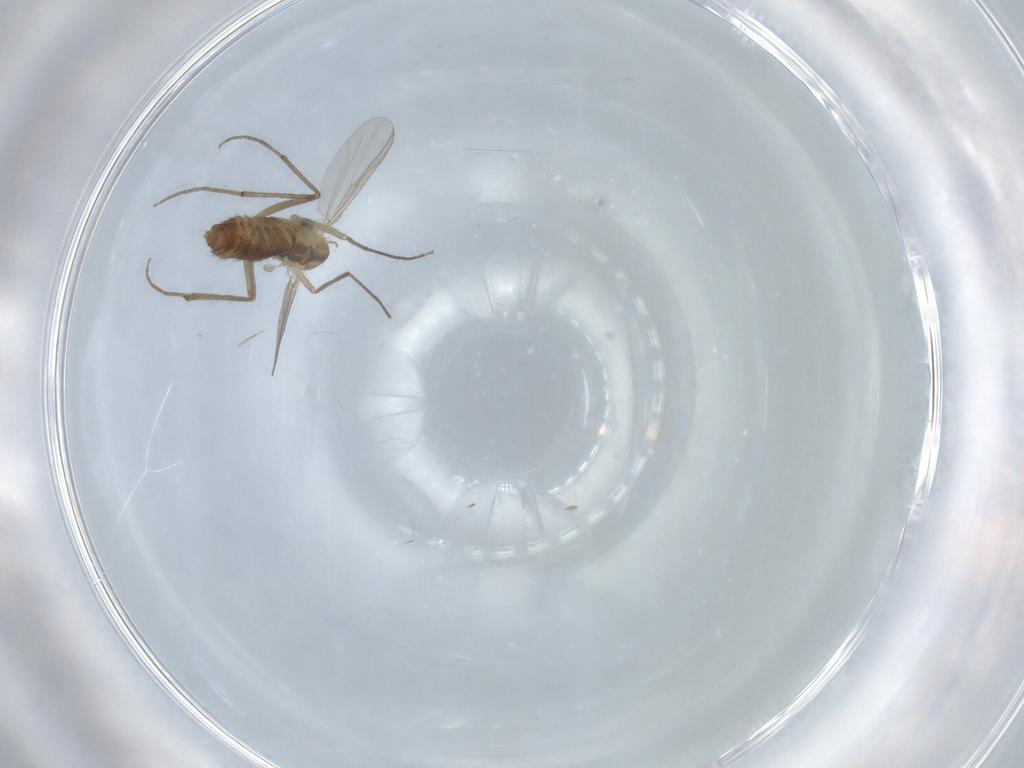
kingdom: Animalia
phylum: Arthropoda
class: Insecta
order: Diptera
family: Chironomidae
